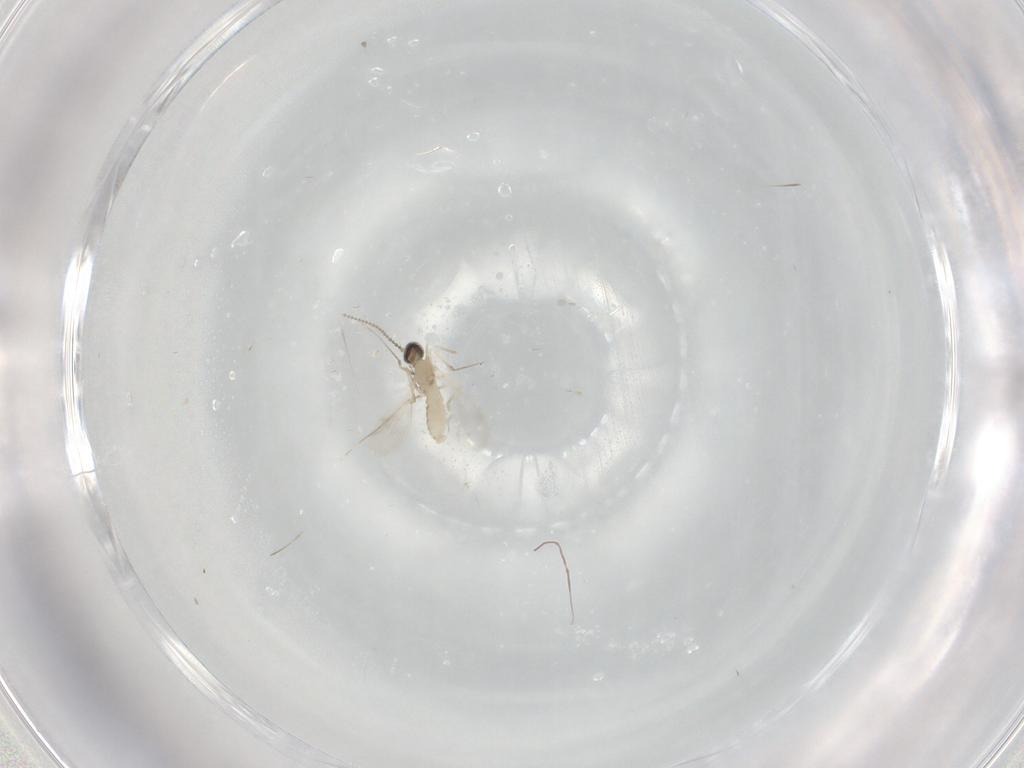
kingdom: Animalia
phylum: Arthropoda
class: Insecta
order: Diptera
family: Cecidomyiidae
